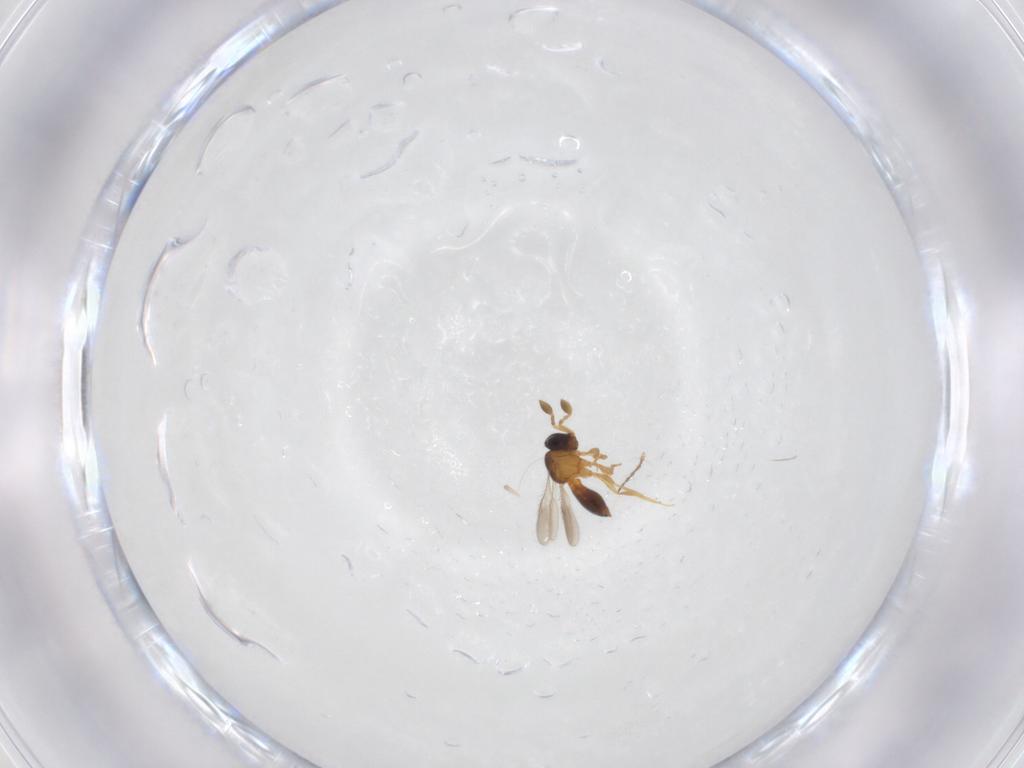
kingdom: Animalia
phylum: Arthropoda
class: Insecta
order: Hymenoptera
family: Scelionidae
